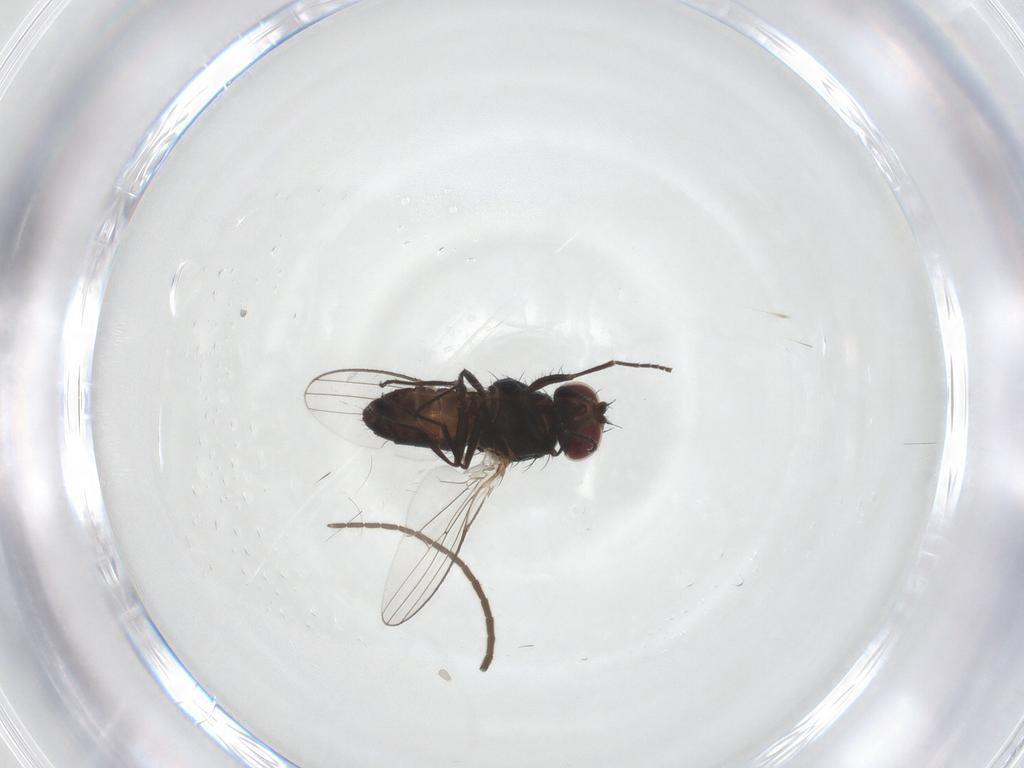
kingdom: Animalia
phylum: Arthropoda
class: Insecta
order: Diptera
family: Carnidae
